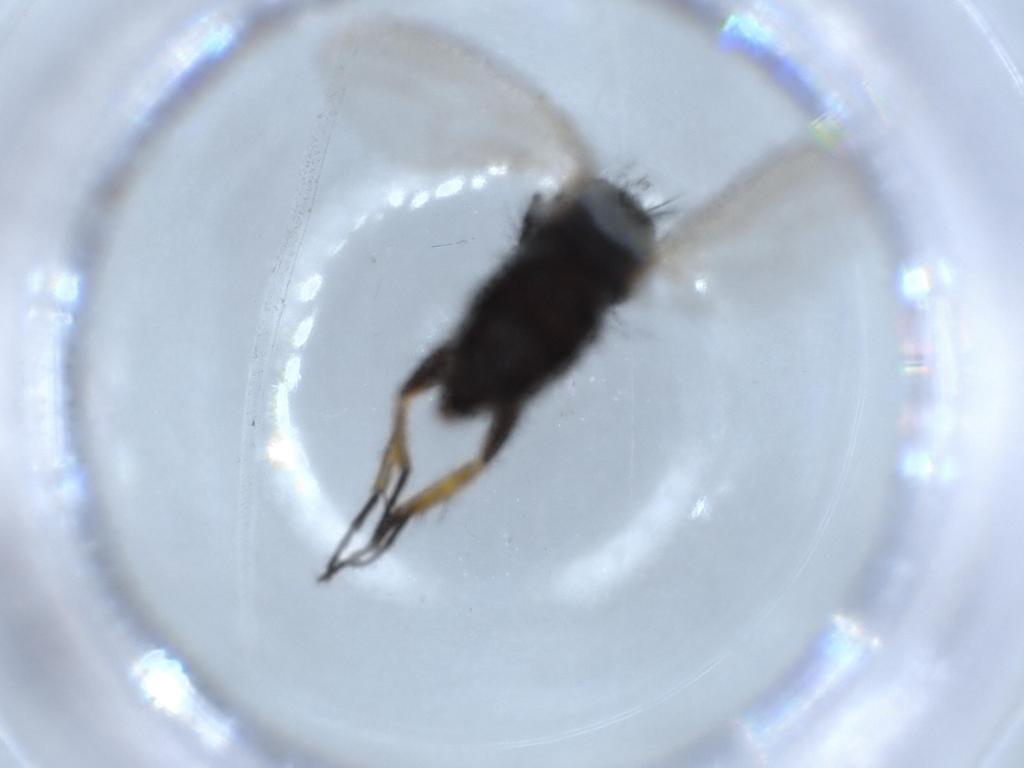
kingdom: Animalia
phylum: Arthropoda
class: Insecta
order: Diptera
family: Muscidae
